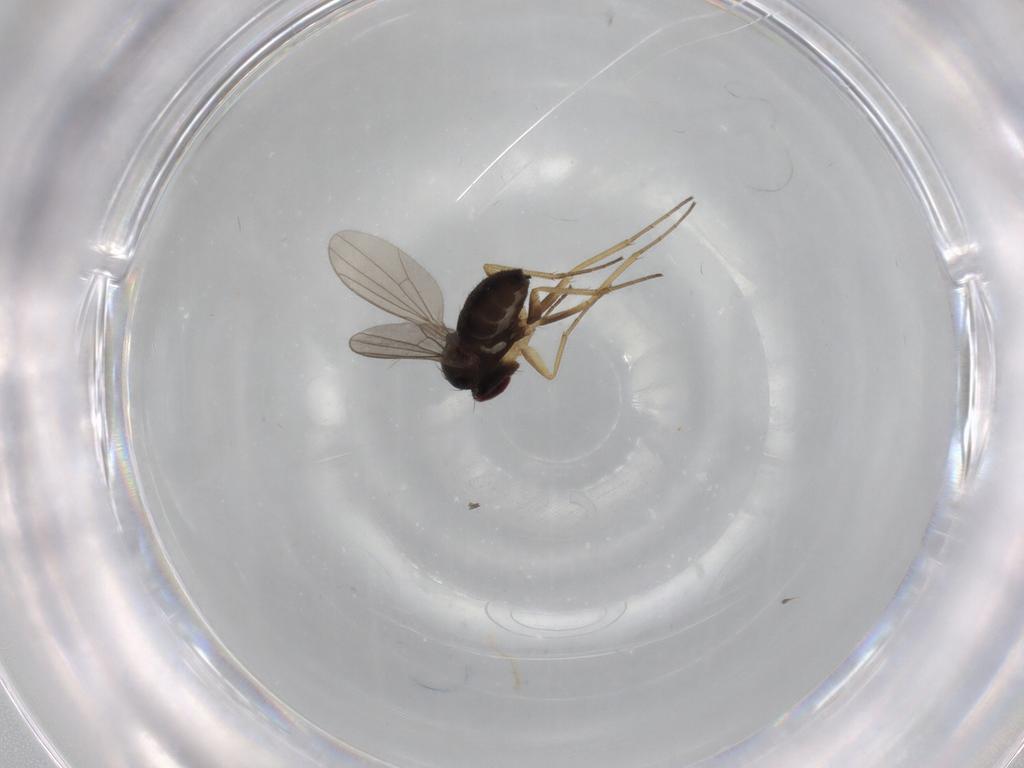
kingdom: Animalia
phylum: Arthropoda
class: Insecta
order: Diptera
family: Dolichopodidae
